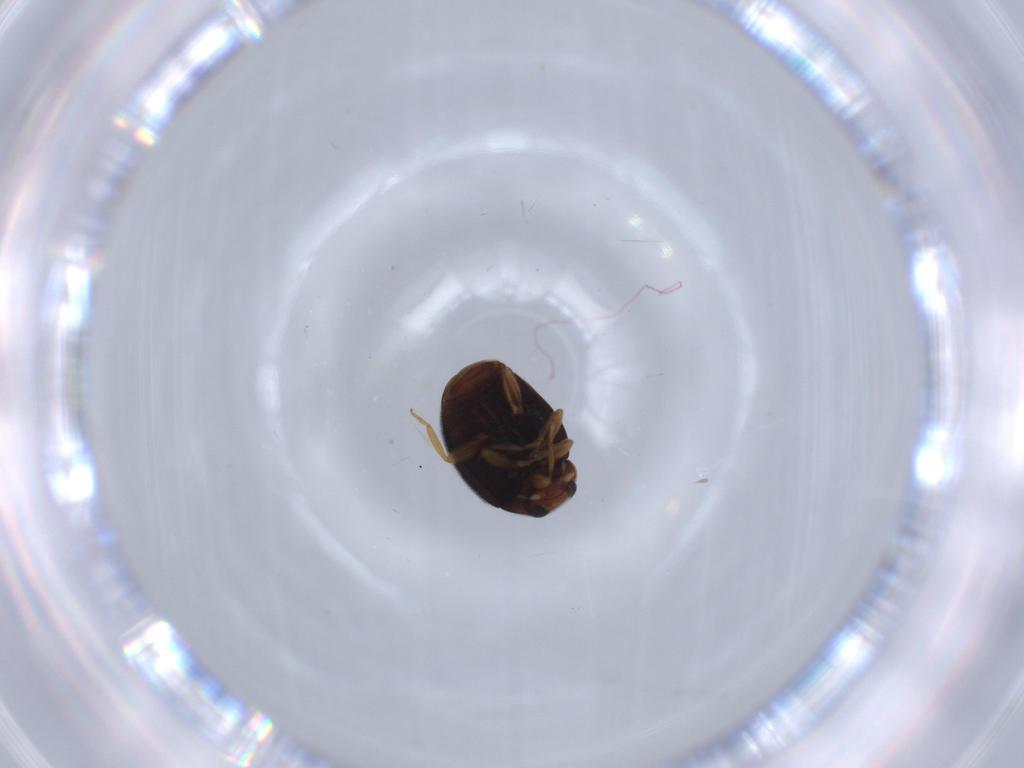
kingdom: Animalia
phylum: Arthropoda
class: Insecta
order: Coleoptera
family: Coccinellidae
